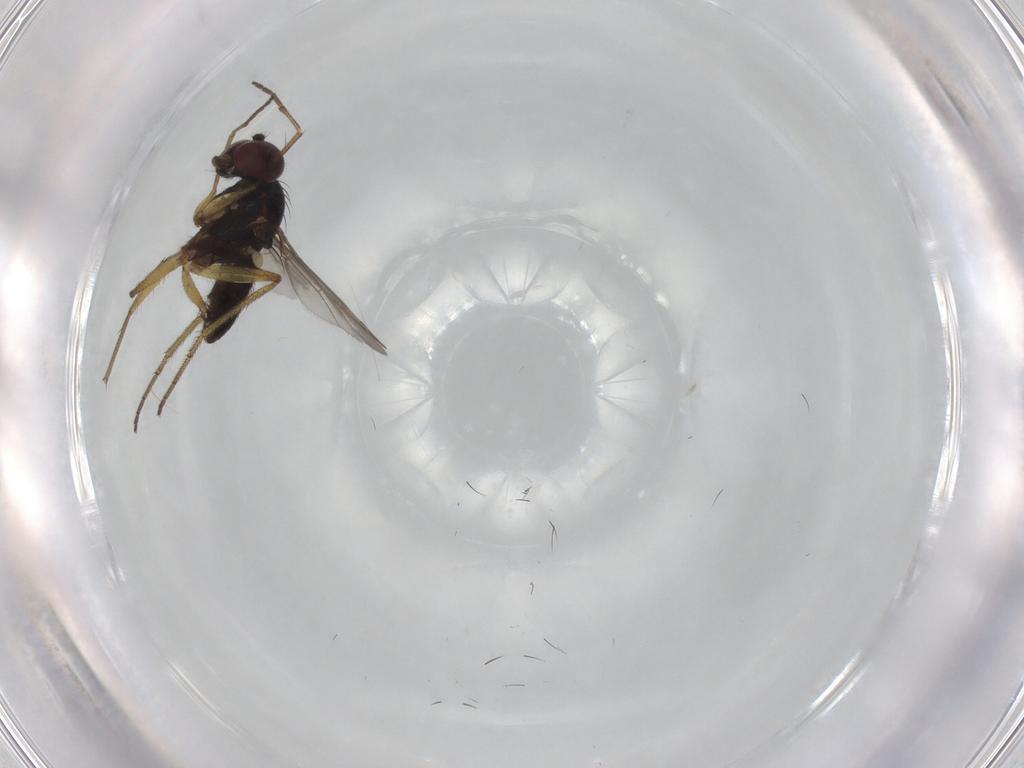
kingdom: Animalia
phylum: Arthropoda
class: Insecta
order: Diptera
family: Dolichopodidae
